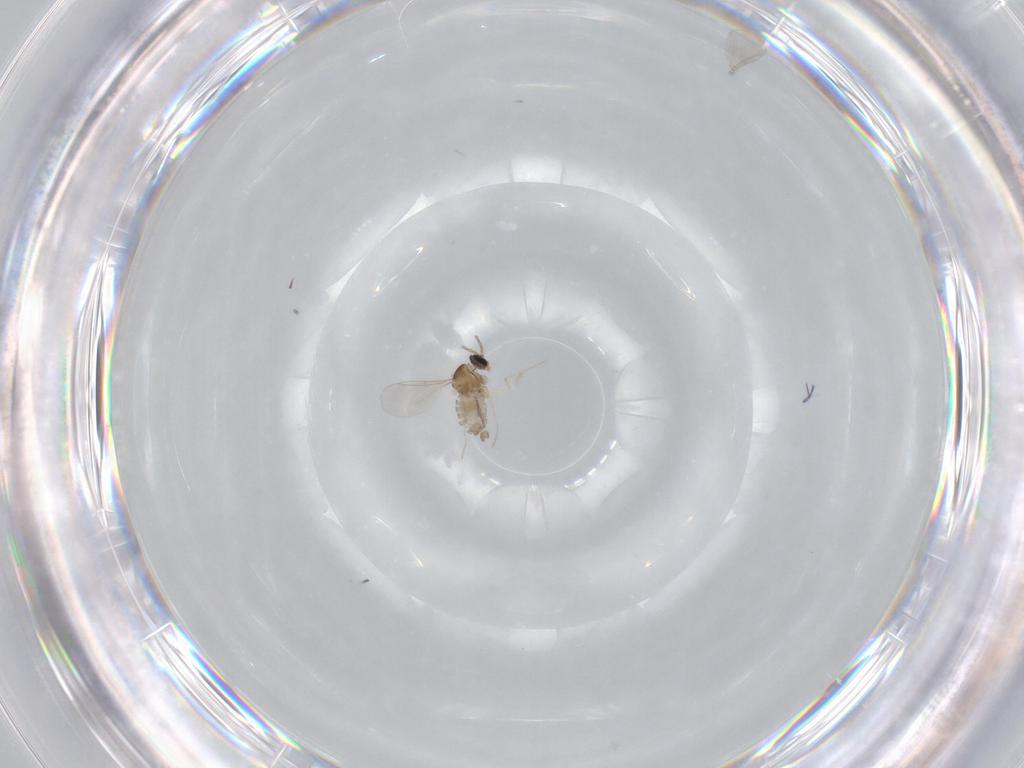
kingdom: Animalia
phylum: Arthropoda
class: Insecta
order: Diptera
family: Cecidomyiidae
